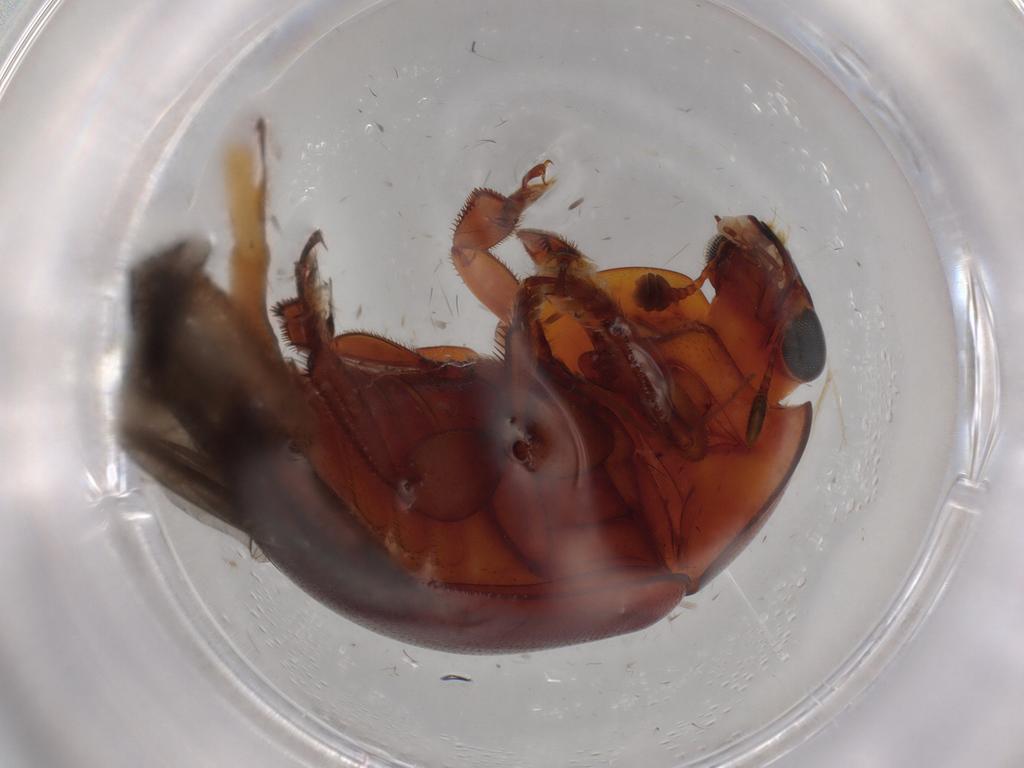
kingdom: Animalia
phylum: Arthropoda
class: Insecta
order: Coleoptera
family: Nitidulidae
